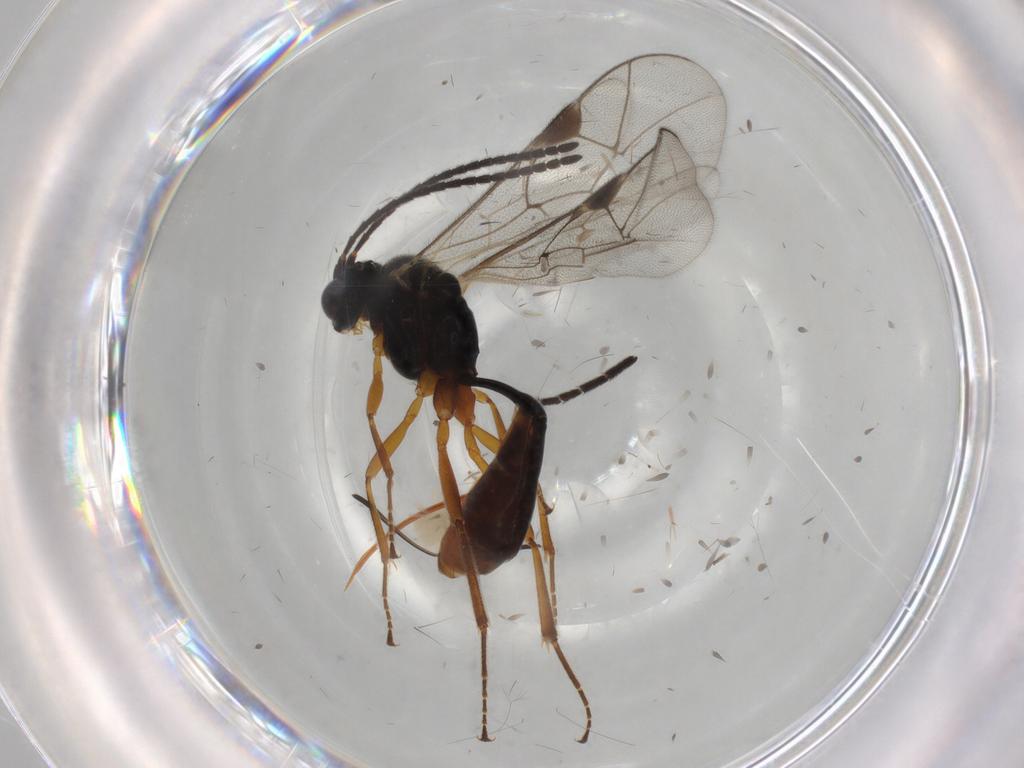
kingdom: Animalia
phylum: Arthropoda
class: Insecta
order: Hymenoptera
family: Ichneumonidae
